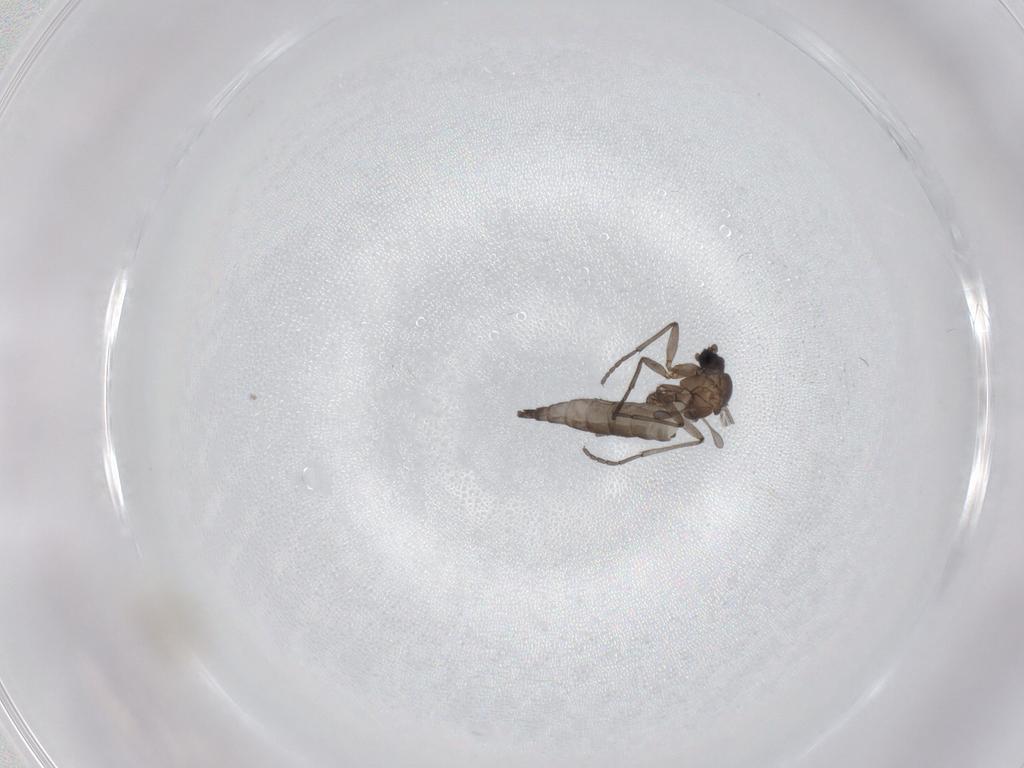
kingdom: Animalia
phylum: Arthropoda
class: Insecta
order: Diptera
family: Sciaridae
